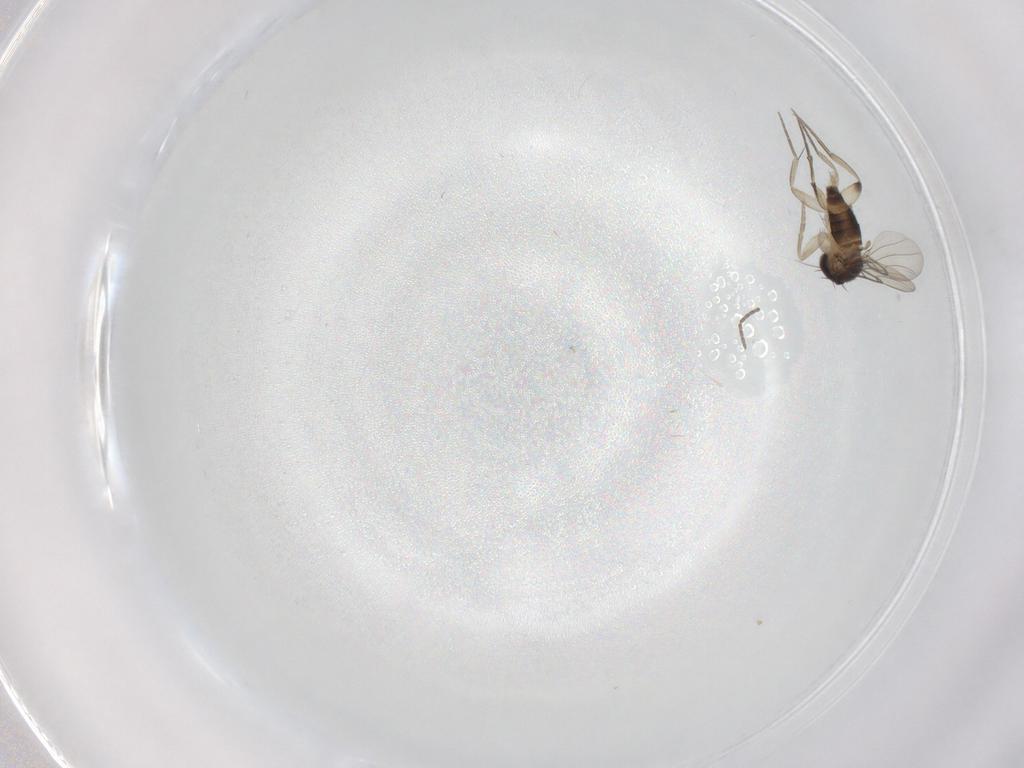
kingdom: Animalia
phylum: Arthropoda
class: Insecta
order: Diptera
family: Phoridae
